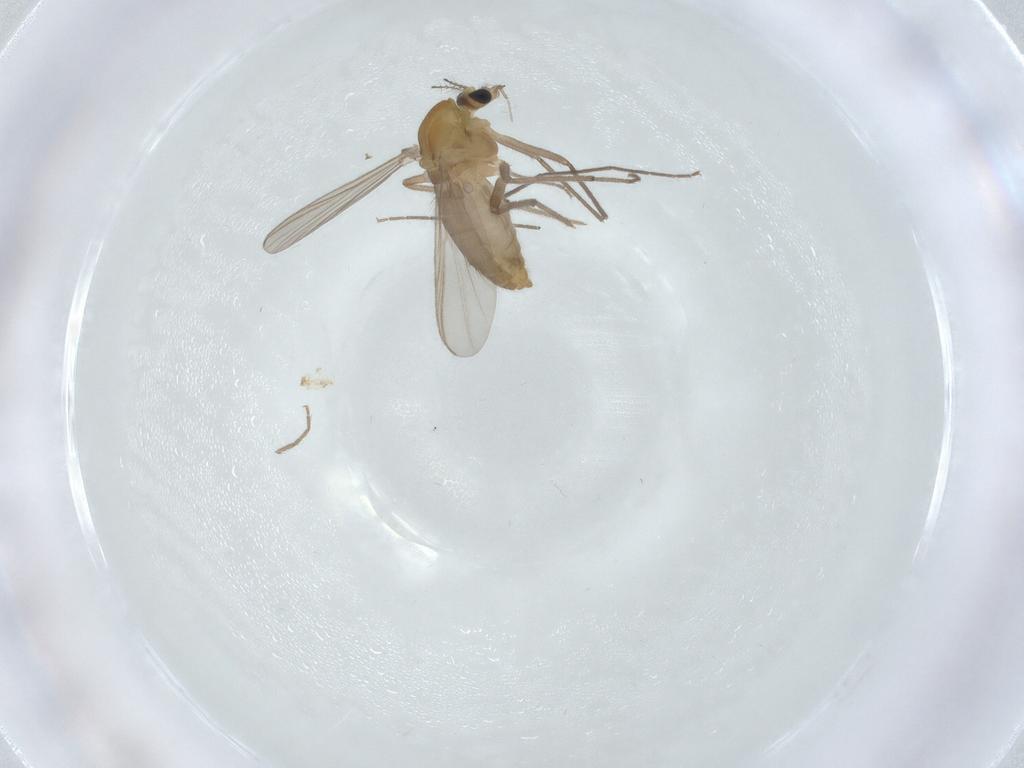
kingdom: Animalia
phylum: Arthropoda
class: Insecta
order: Diptera
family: Chironomidae
